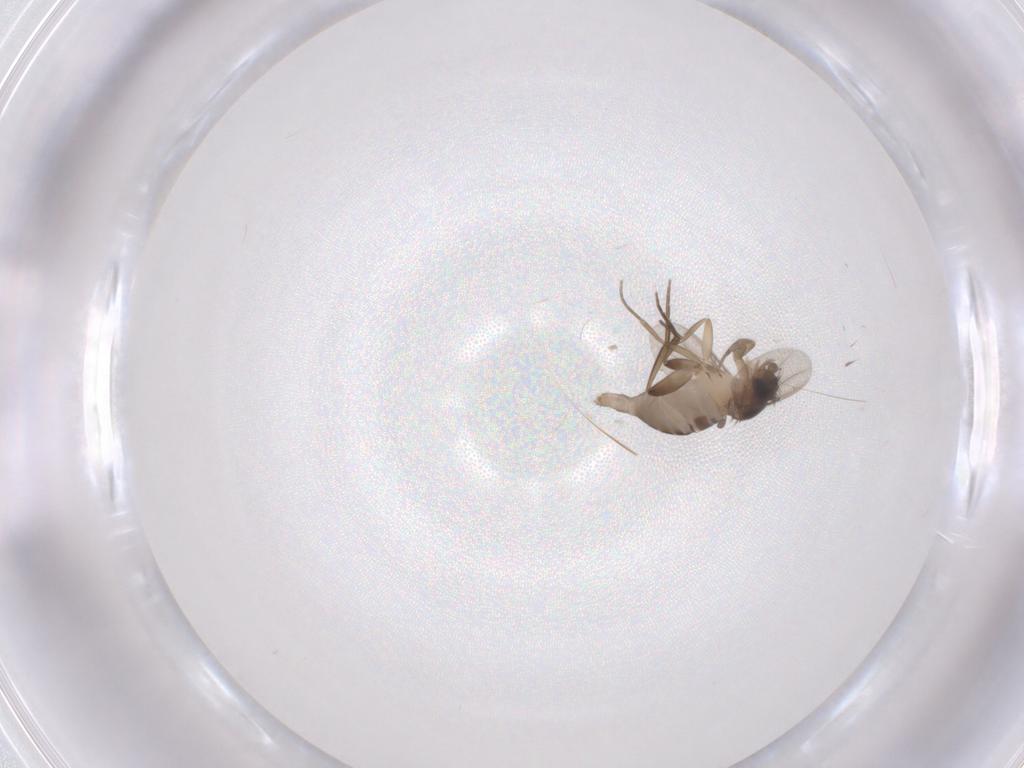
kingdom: Animalia
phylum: Arthropoda
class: Insecta
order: Diptera
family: Phoridae
